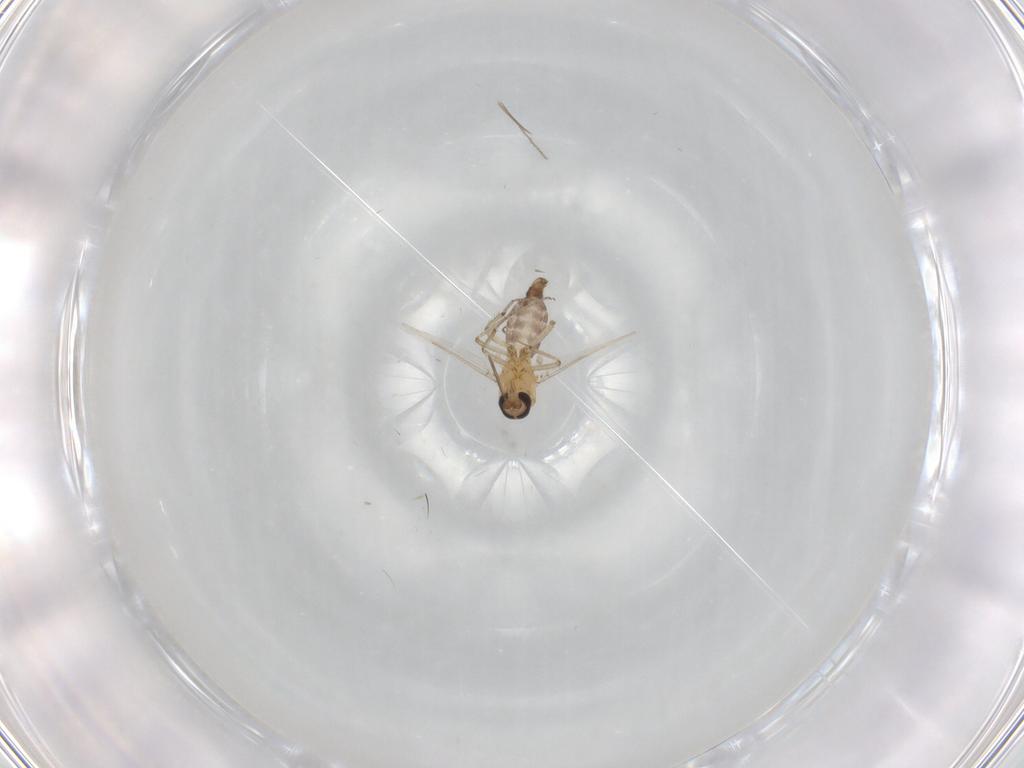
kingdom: Animalia
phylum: Arthropoda
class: Insecta
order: Diptera
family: Ceratopogonidae
